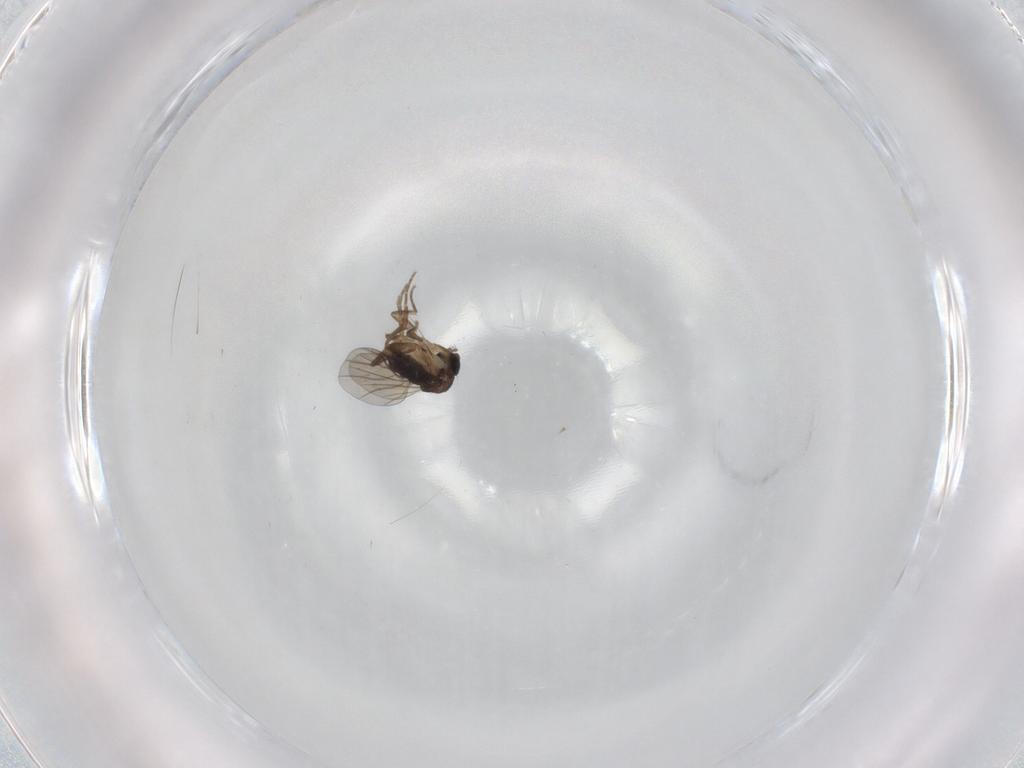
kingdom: Animalia
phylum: Arthropoda
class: Insecta
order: Diptera
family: Phoridae
